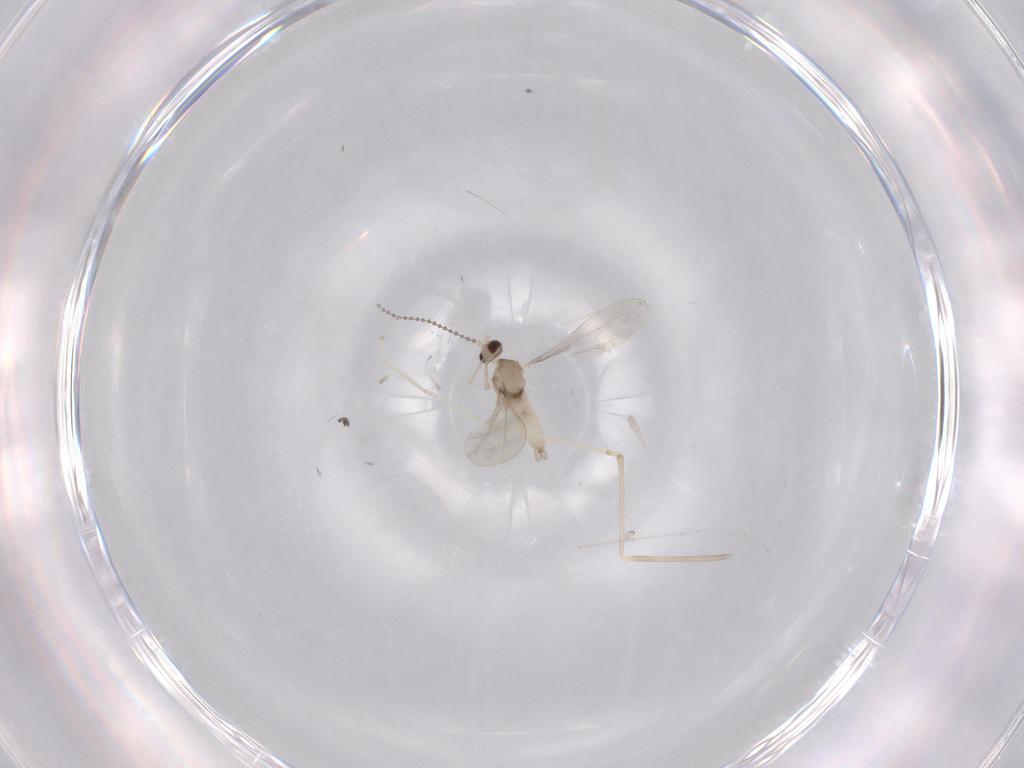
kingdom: Animalia
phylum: Arthropoda
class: Insecta
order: Diptera
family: Cecidomyiidae
